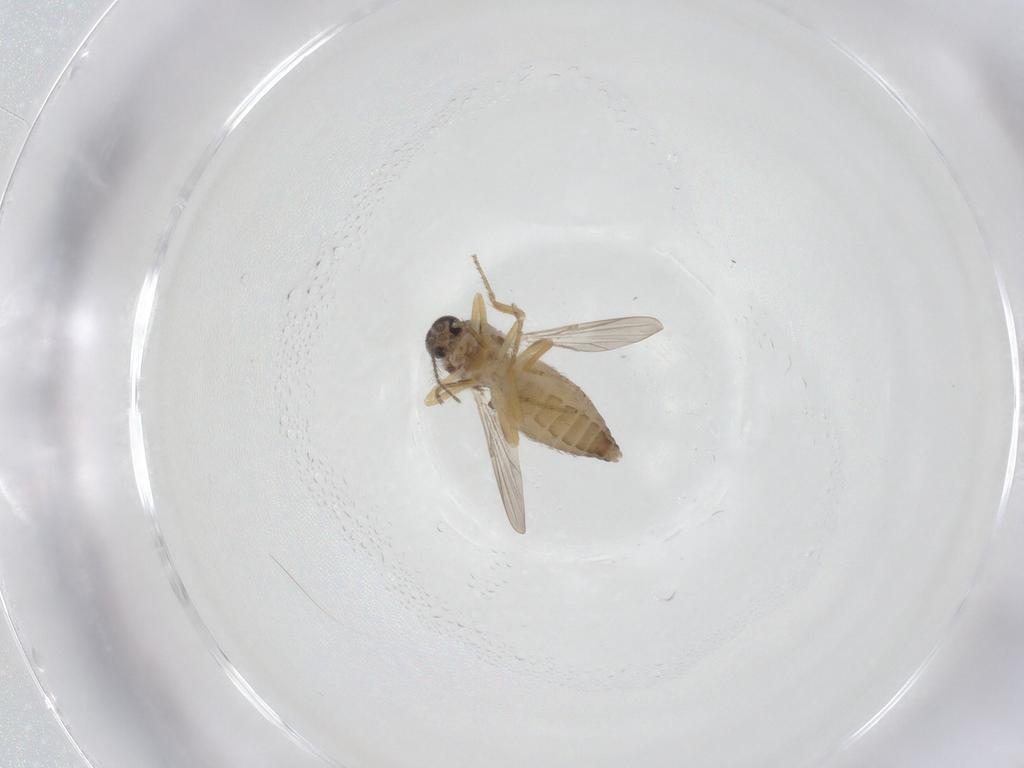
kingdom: Animalia
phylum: Arthropoda
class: Insecta
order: Diptera
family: Ceratopogonidae
